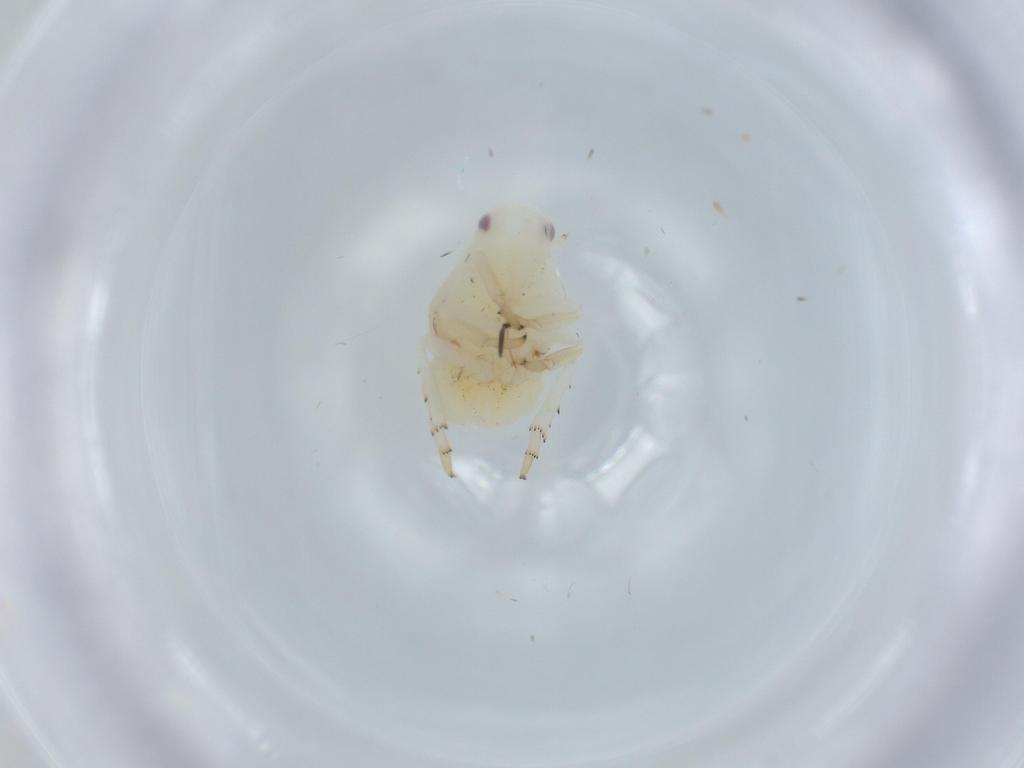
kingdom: Animalia
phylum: Arthropoda
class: Insecta
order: Hemiptera
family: Flatidae
